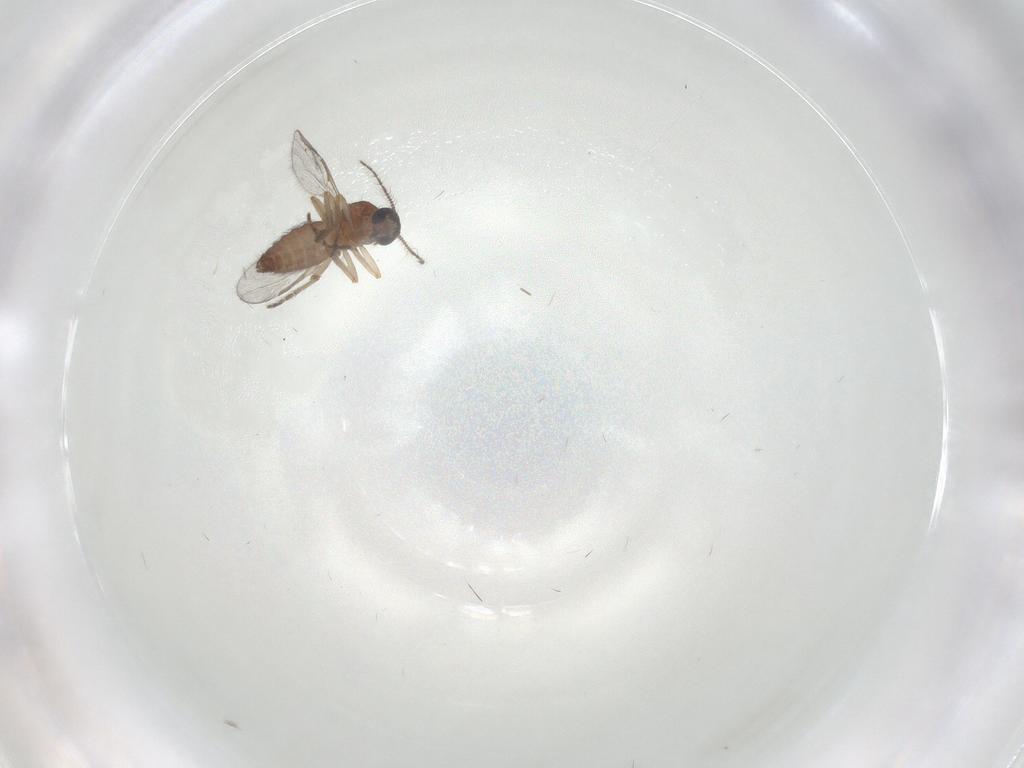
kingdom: Animalia
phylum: Arthropoda
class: Insecta
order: Diptera
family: Ceratopogonidae
